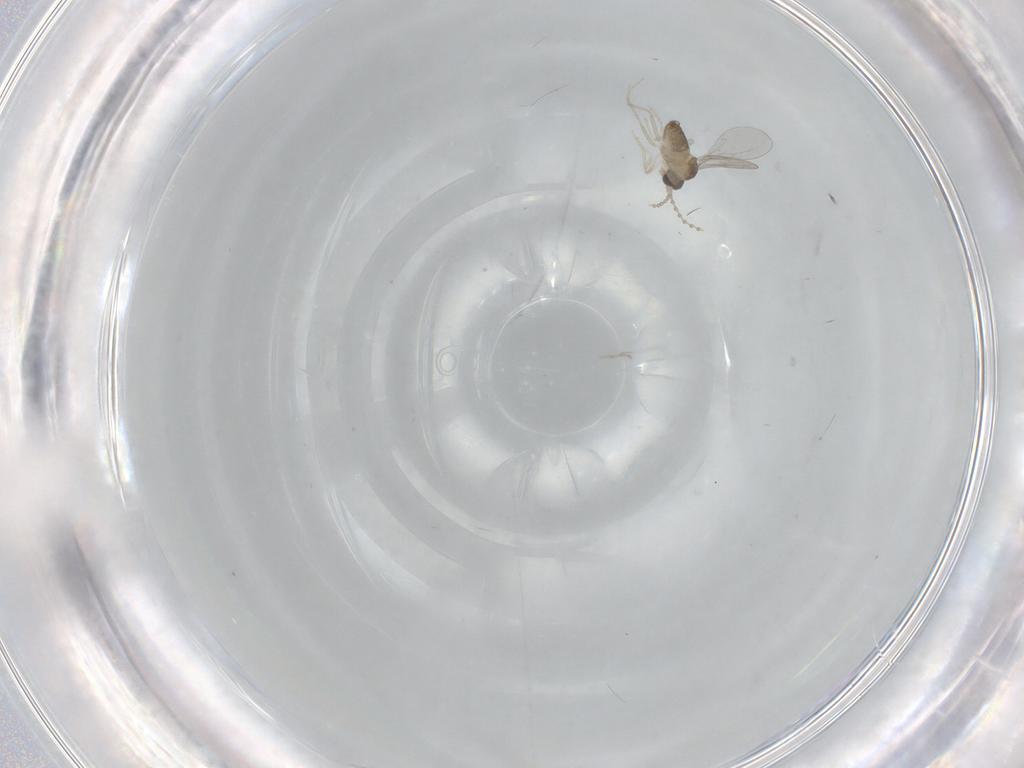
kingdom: Animalia
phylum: Arthropoda
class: Insecta
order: Diptera
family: Cecidomyiidae
